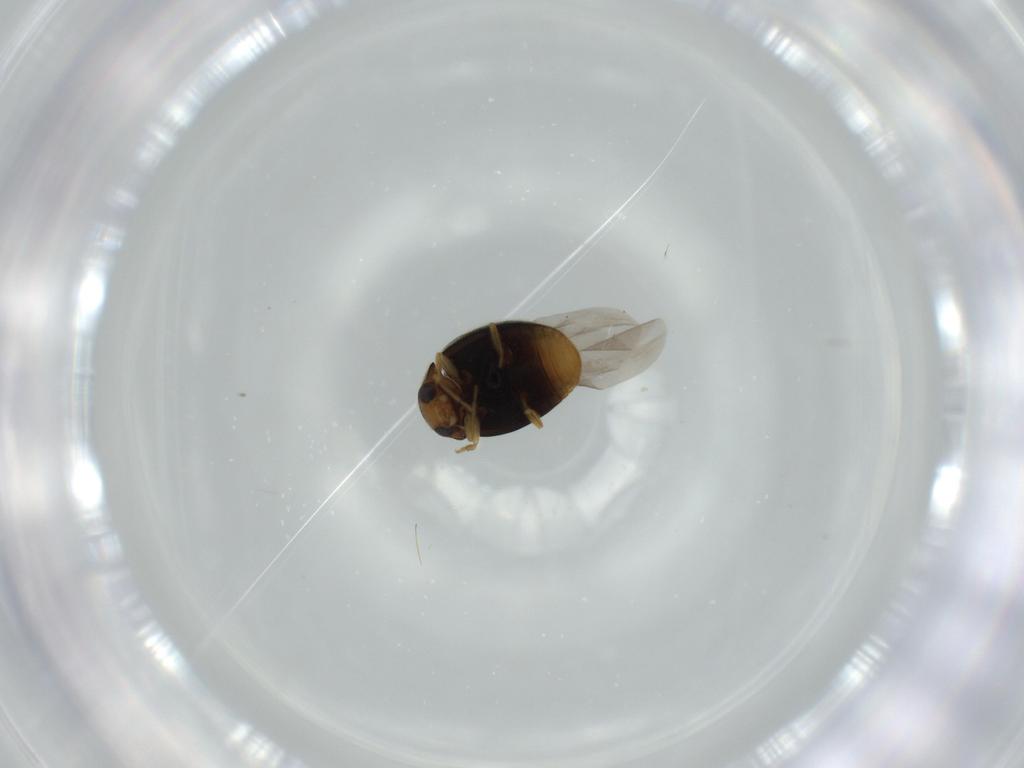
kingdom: Animalia
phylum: Arthropoda
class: Insecta
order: Coleoptera
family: Coccinellidae
